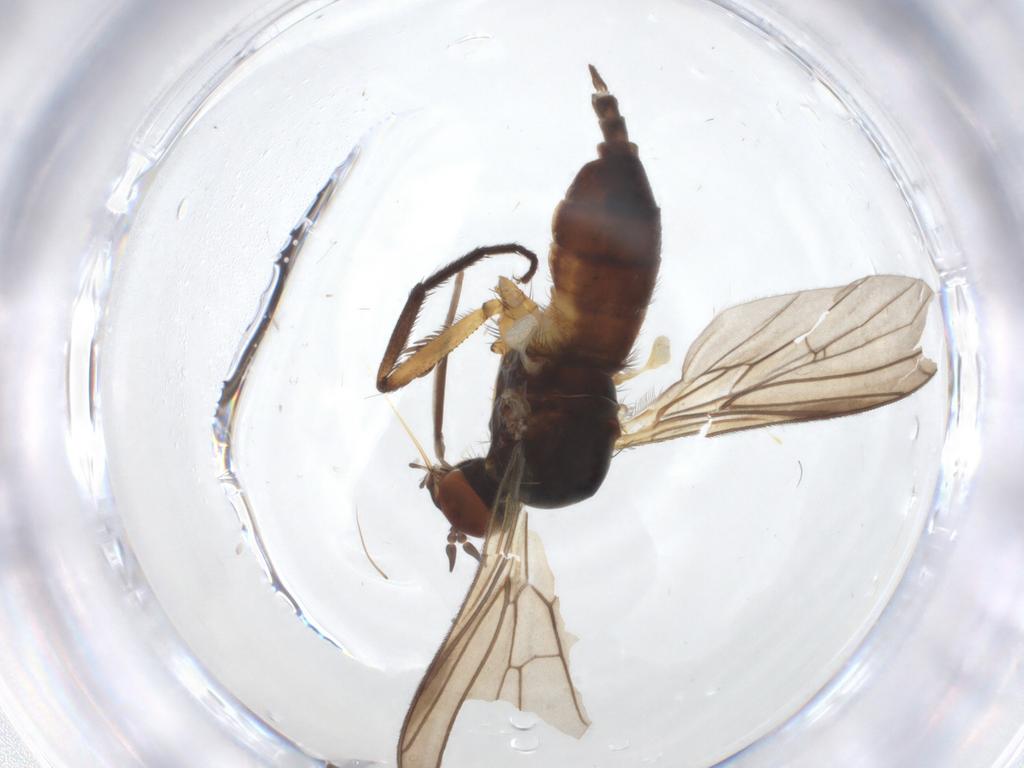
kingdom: Animalia
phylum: Arthropoda
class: Insecta
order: Diptera
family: Empididae
